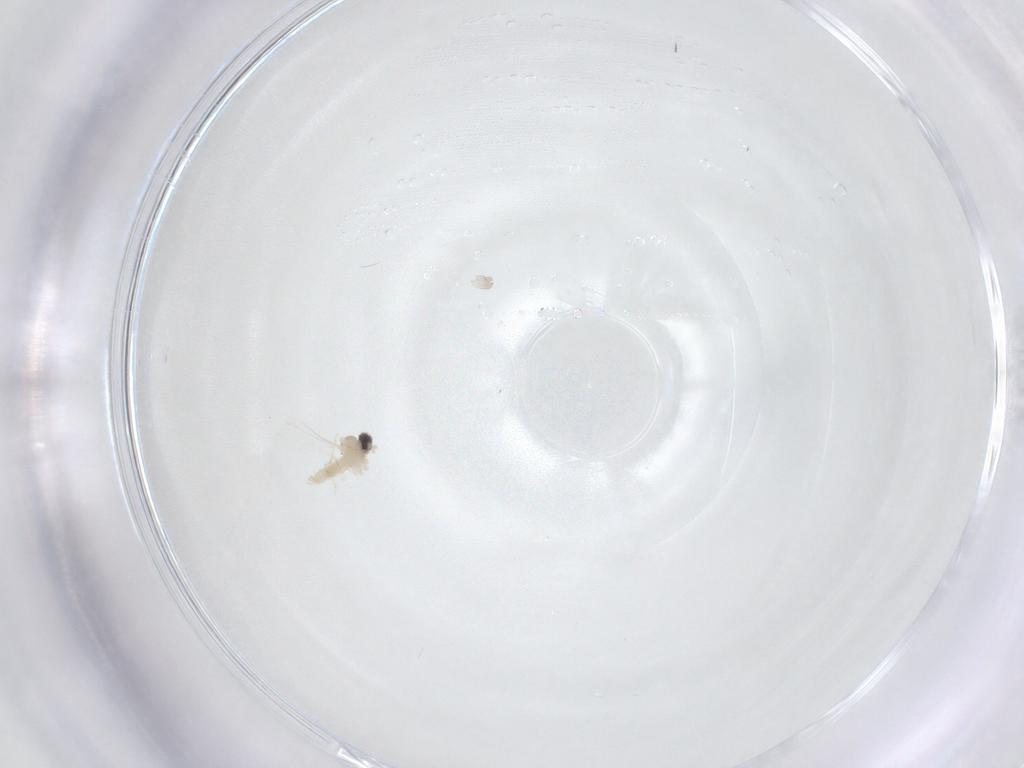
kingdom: Animalia
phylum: Arthropoda
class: Insecta
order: Diptera
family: Cecidomyiidae
